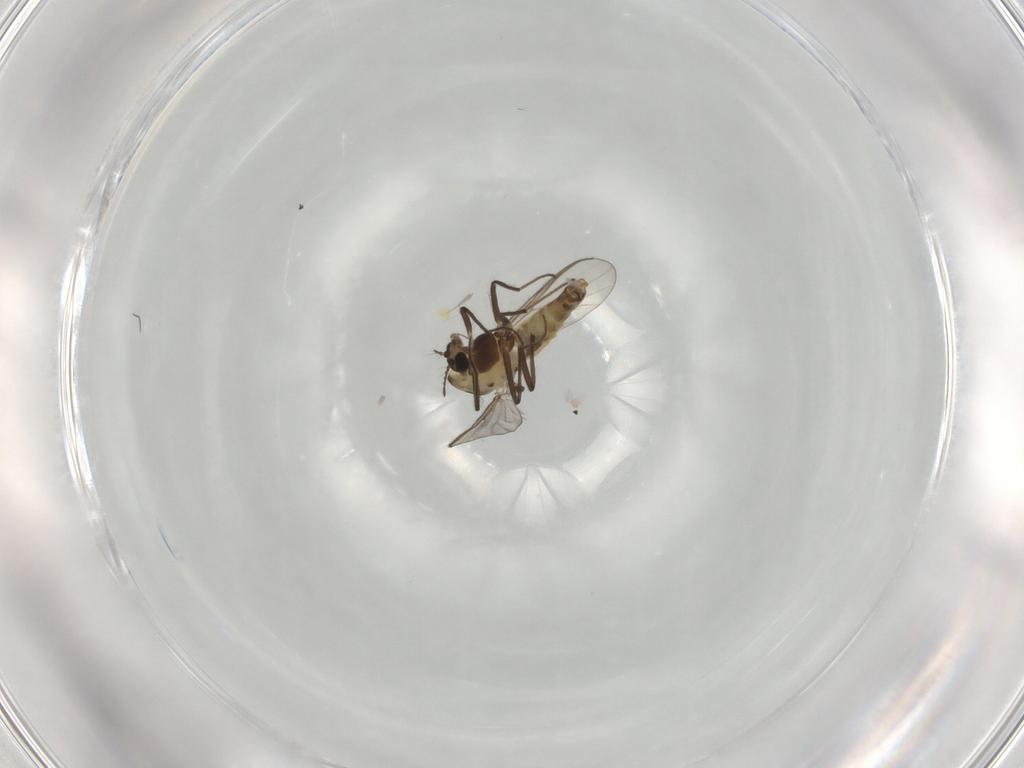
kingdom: Animalia
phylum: Arthropoda
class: Insecta
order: Diptera
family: Chironomidae
